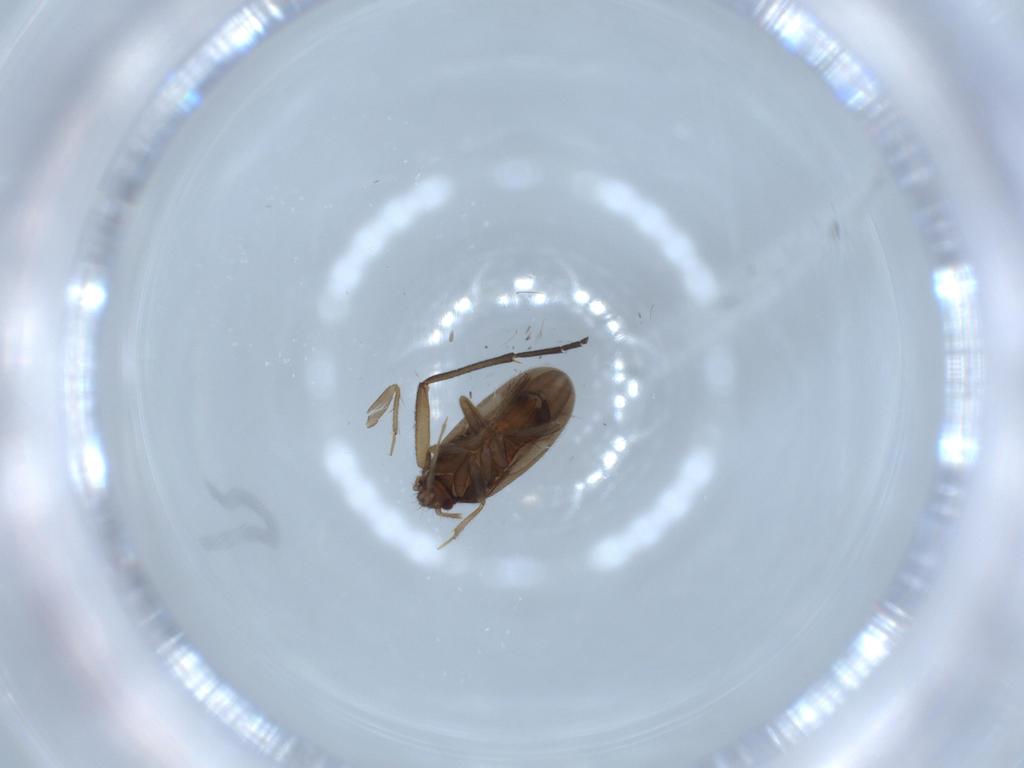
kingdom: Animalia
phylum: Arthropoda
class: Insecta
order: Hemiptera
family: Ceratocombidae
